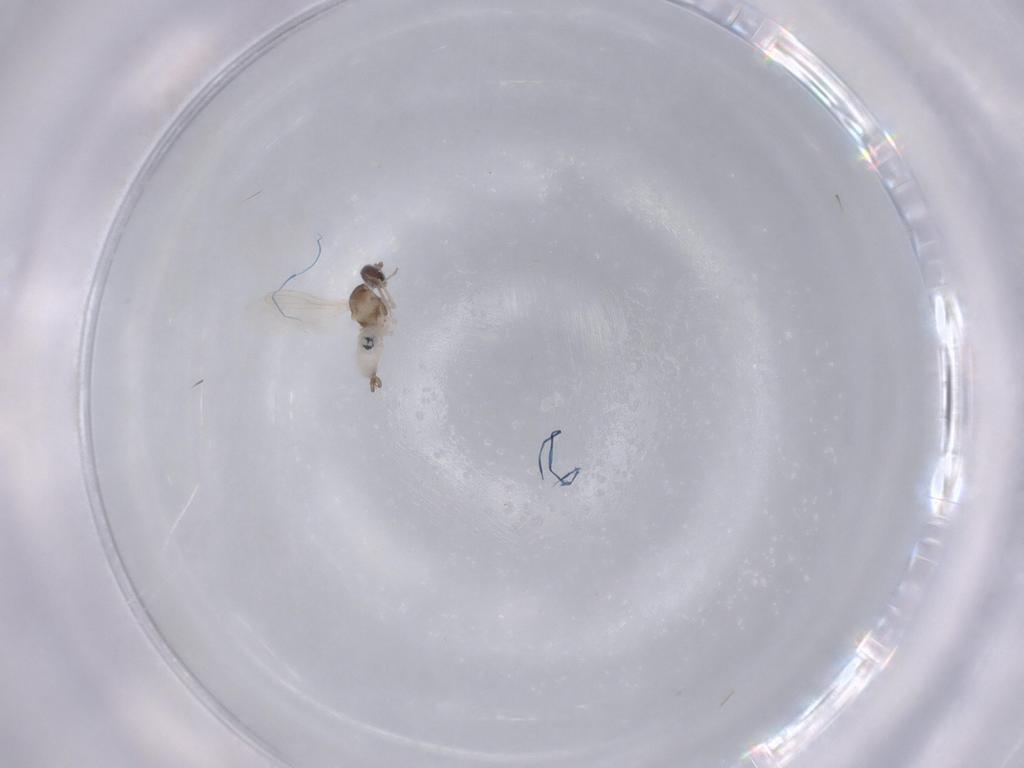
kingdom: Animalia
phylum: Arthropoda
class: Insecta
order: Diptera
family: Cecidomyiidae
